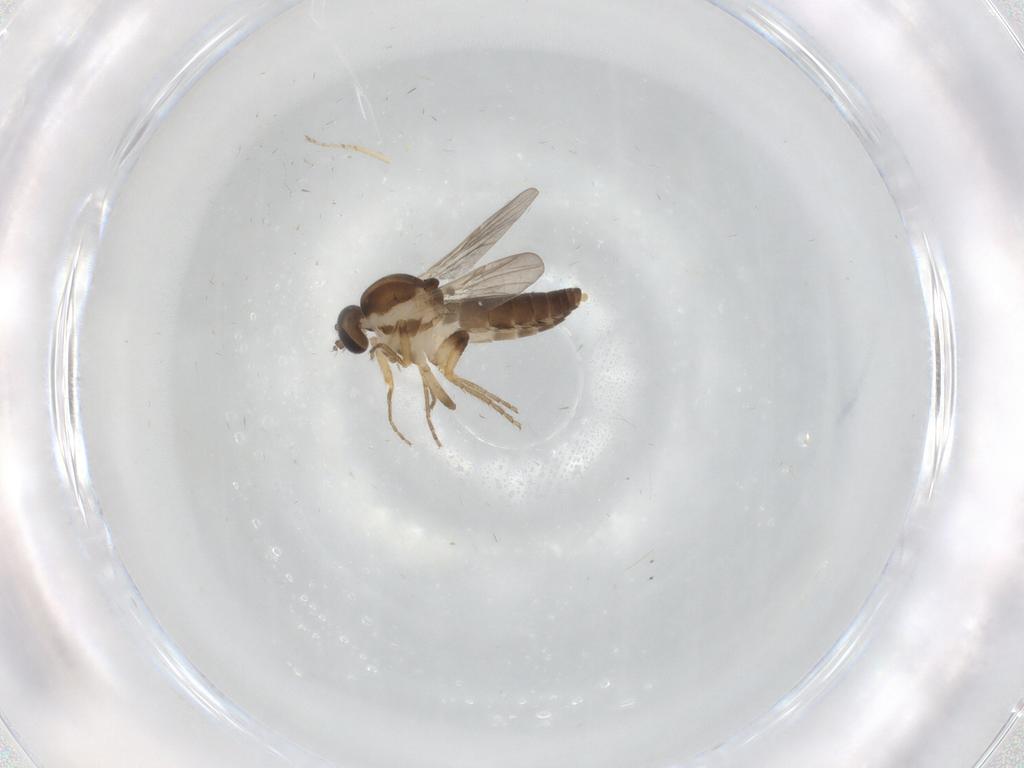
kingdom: Animalia
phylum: Arthropoda
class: Insecta
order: Diptera
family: Ceratopogonidae
